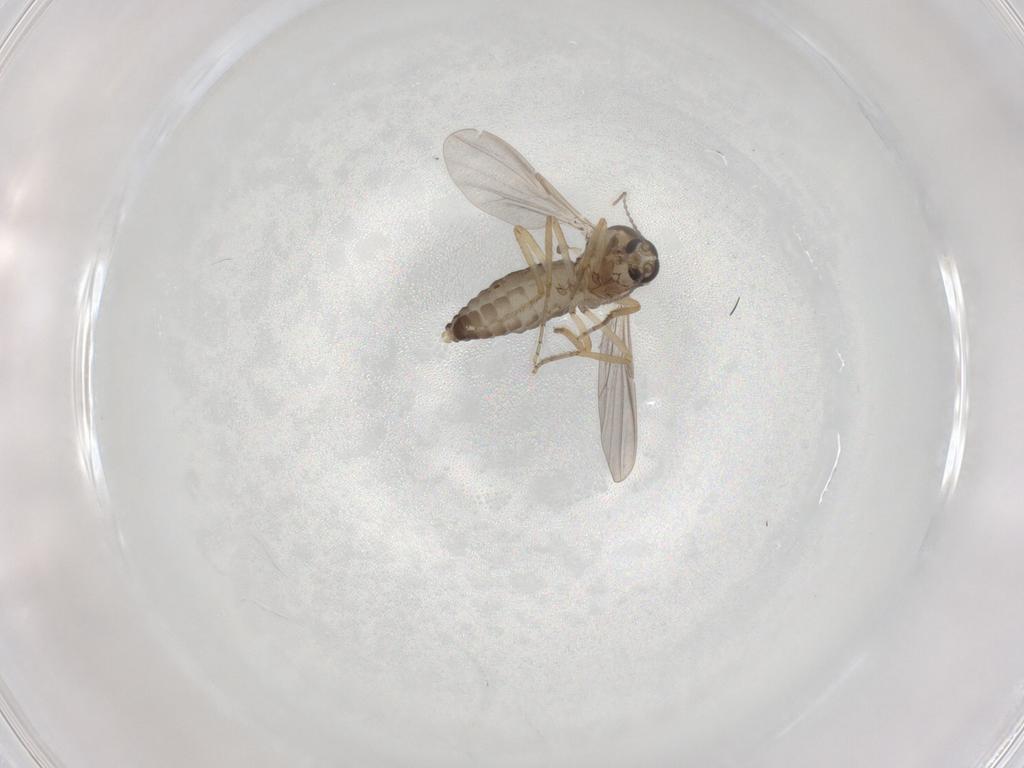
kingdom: Animalia
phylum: Arthropoda
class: Insecta
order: Diptera
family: Ceratopogonidae
